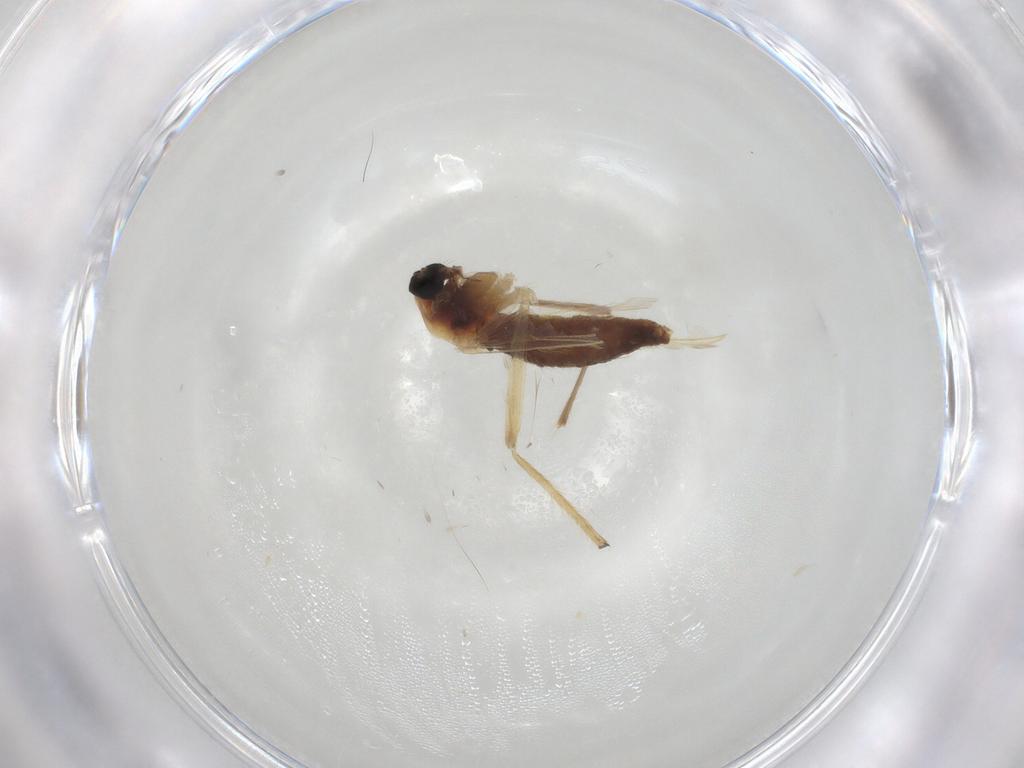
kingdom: Animalia
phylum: Arthropoda
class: Insecta
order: Diptera
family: Chironomidae
